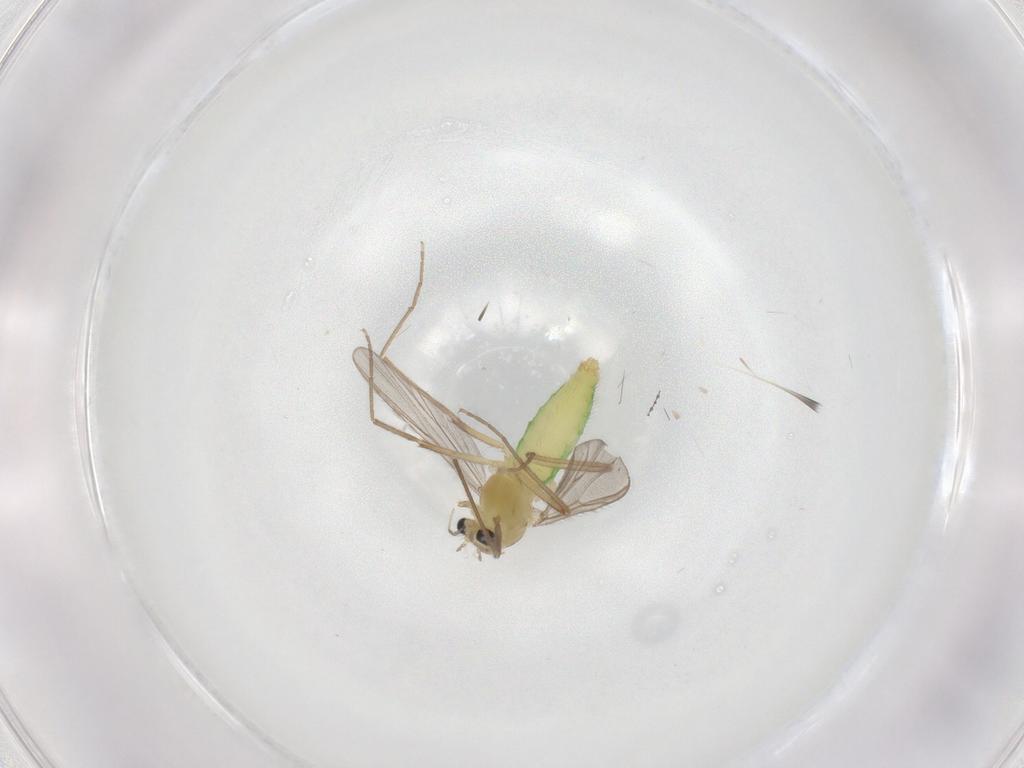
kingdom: Animalia
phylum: Arthropoda
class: Insecta
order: Diptera
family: Chironomidae
